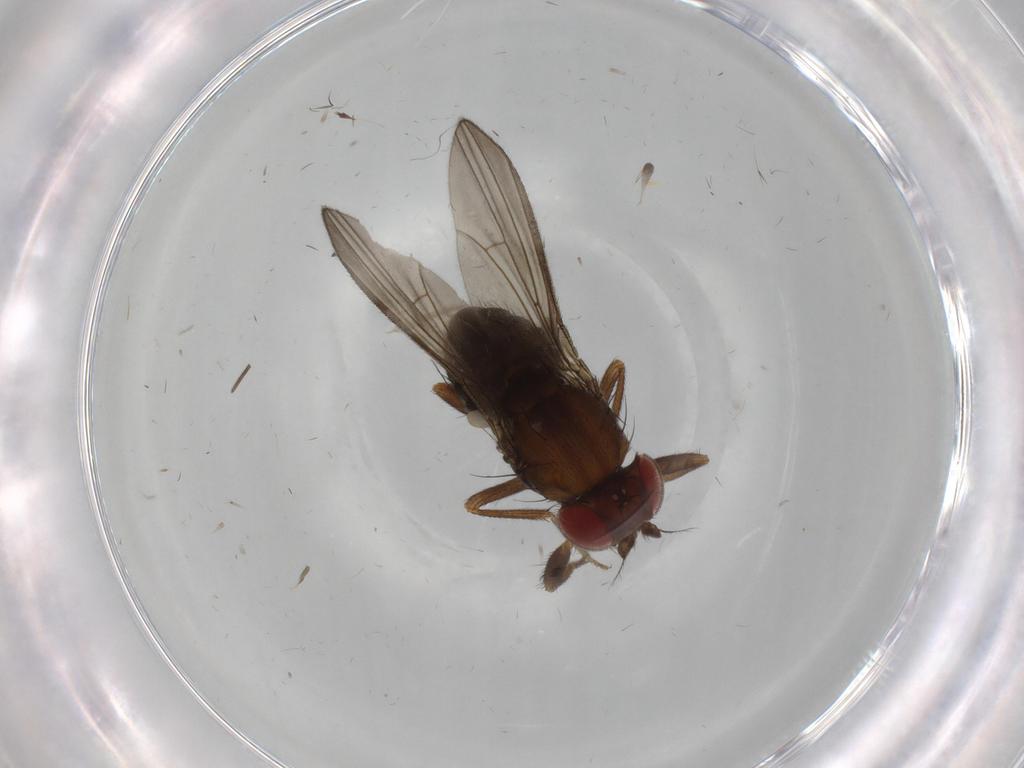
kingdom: Animalia
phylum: Arthropoda
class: Insecta
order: Diptera
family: Drosophilidae
